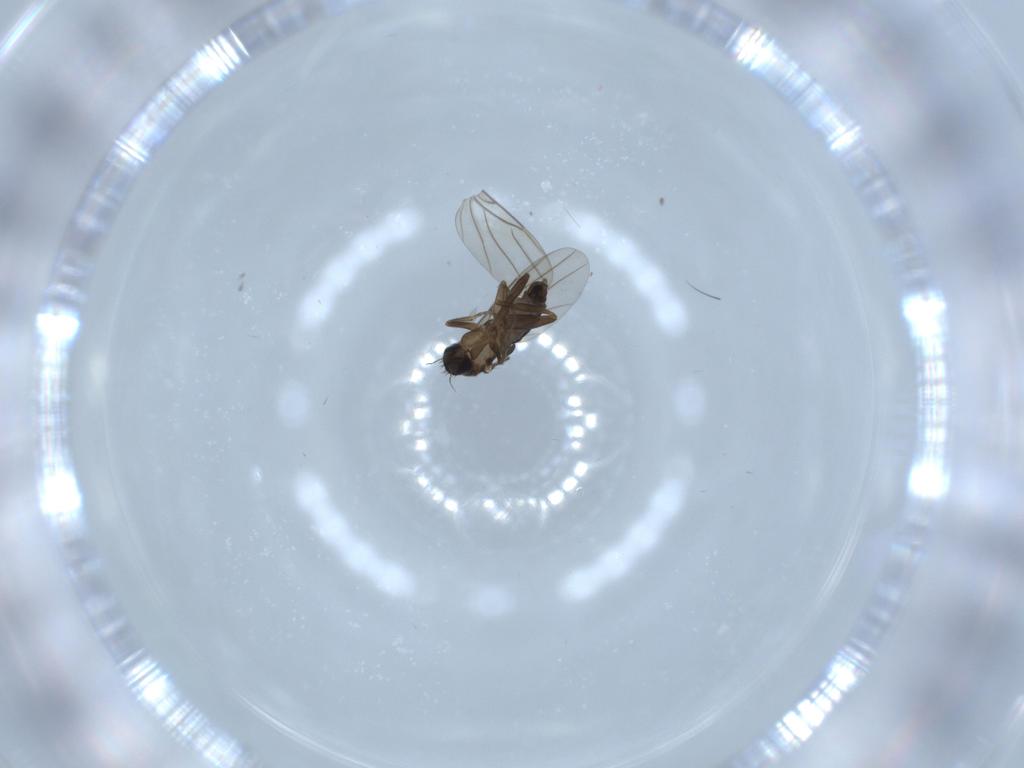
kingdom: Animalia
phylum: Arthropoda
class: Insecta
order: Diptera
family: Phoridae
